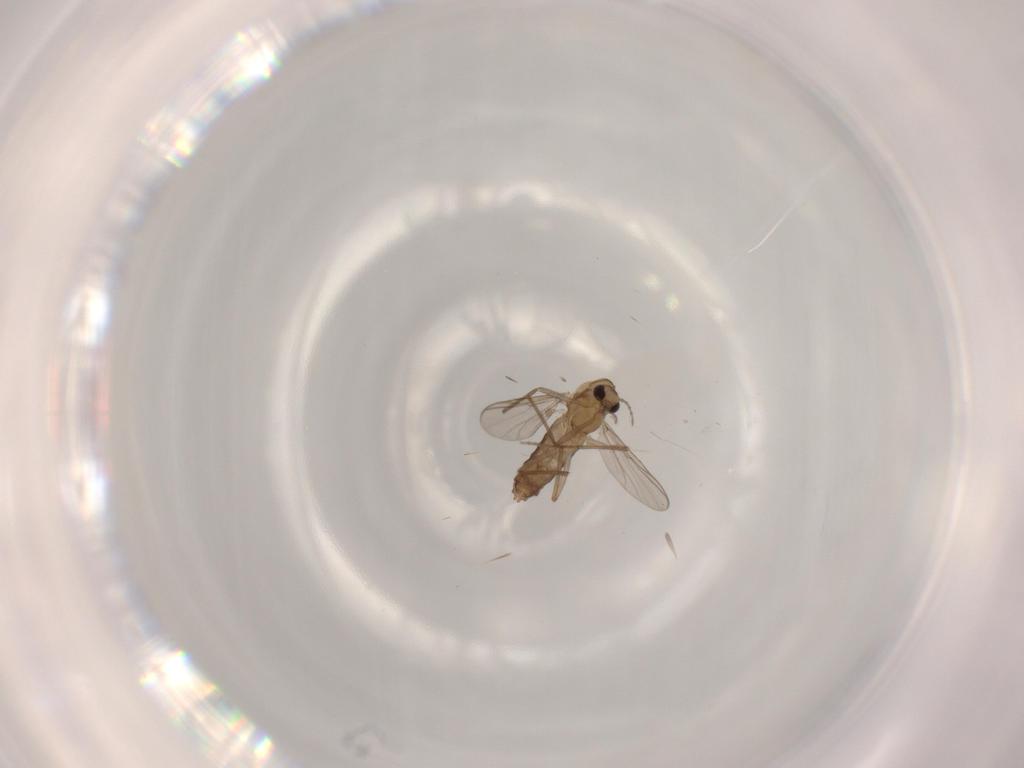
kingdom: Animalia
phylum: Arthropoda
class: Insecta
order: Diptera
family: Chironomidae
